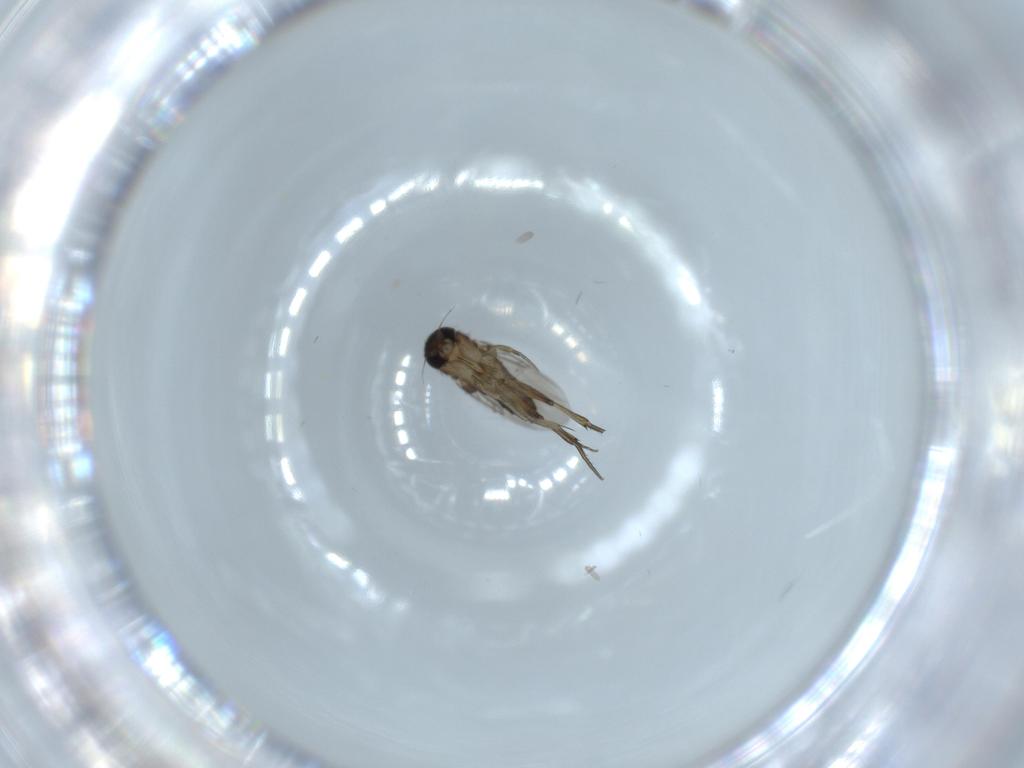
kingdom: Animalia
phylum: Arthropoda
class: Insecta
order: Diptera
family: Phoridae
